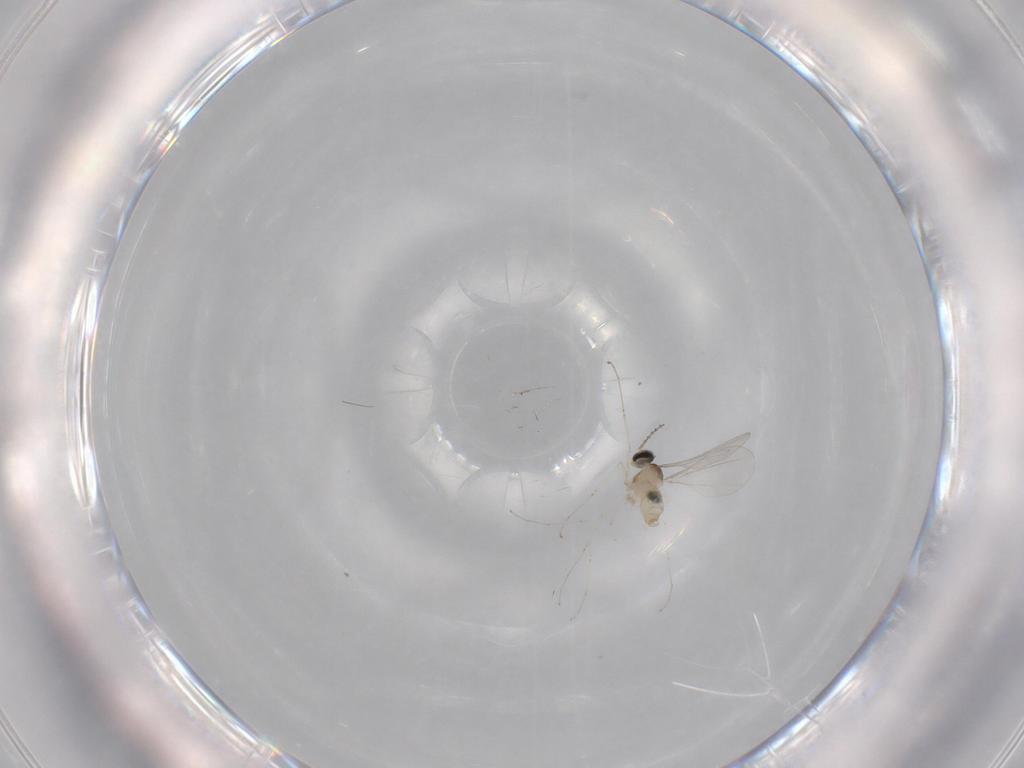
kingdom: Animalia
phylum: Arthropoda
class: Insecta
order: Diptera
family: Cecidomyiidae
